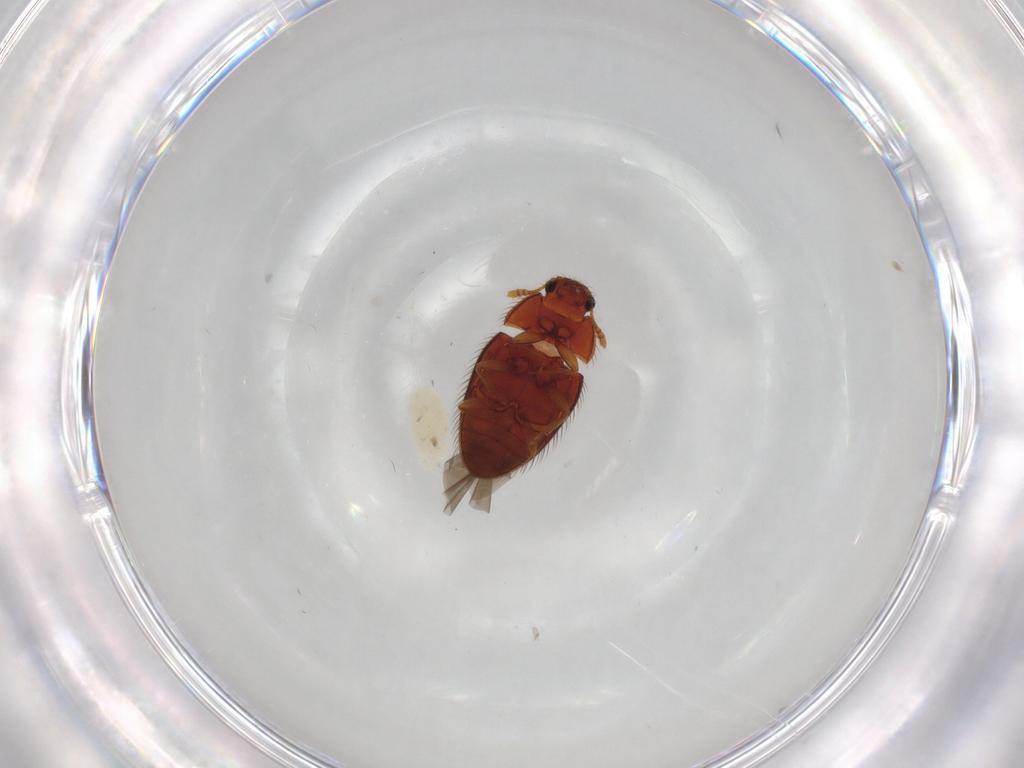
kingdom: Animalia
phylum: Arthropoda
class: Insecta
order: Coleoptera
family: Biphyllidae
